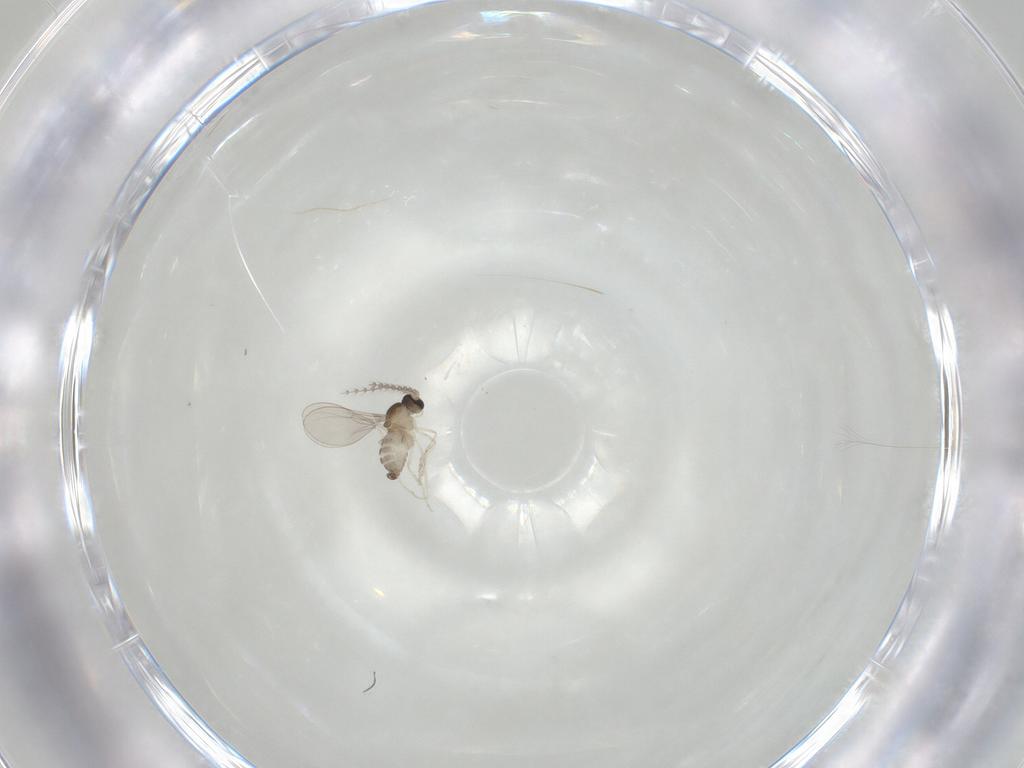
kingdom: Animalia
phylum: Arthropoda
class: Insecta
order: Diptera
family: Cecidomyiidae
